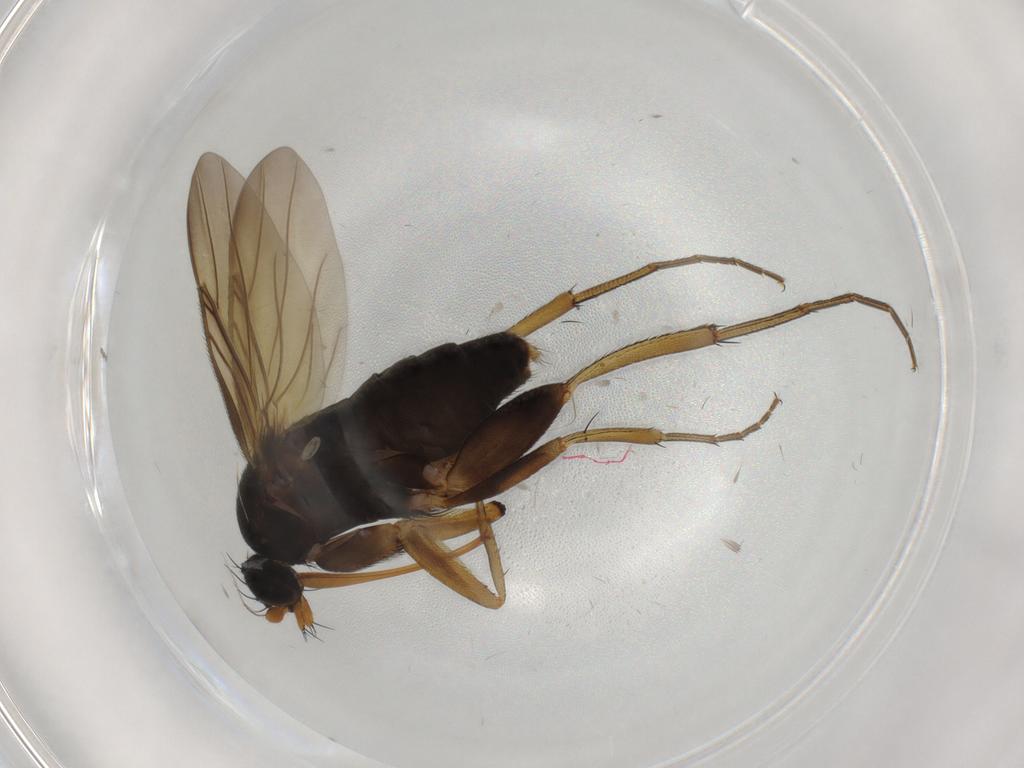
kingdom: Animalia
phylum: Arthropoda
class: Insecta
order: Diptera
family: Phoridae
